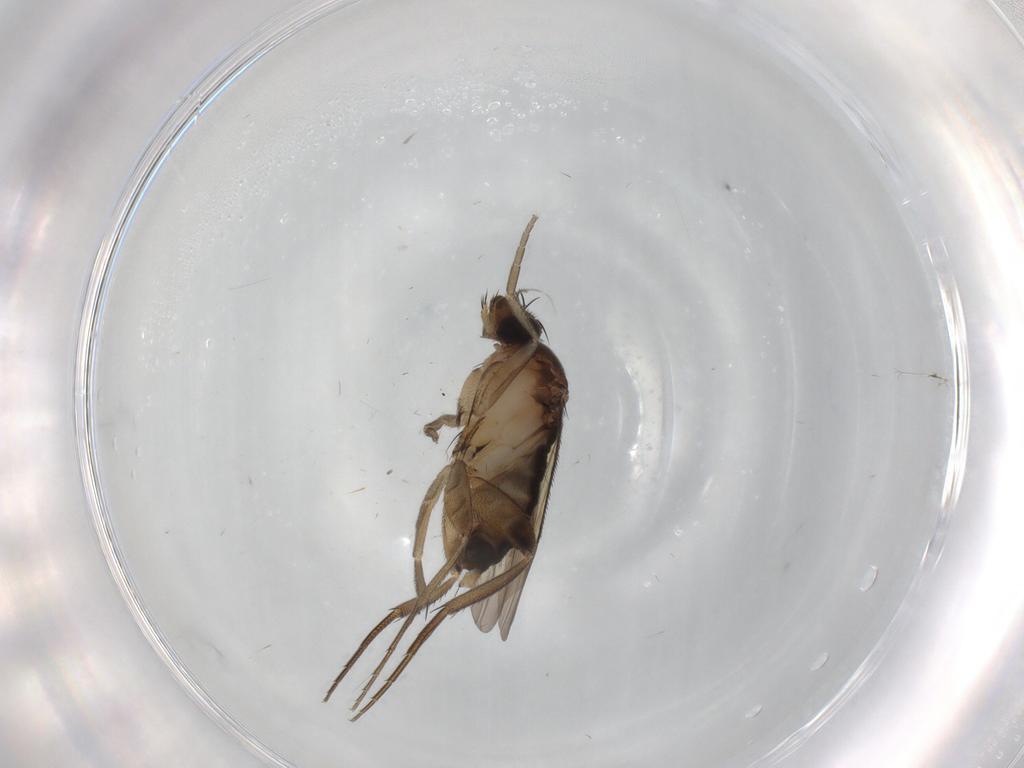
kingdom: Animalia
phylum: Arthropoda
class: Insecta
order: Diptera
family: Phoridae
